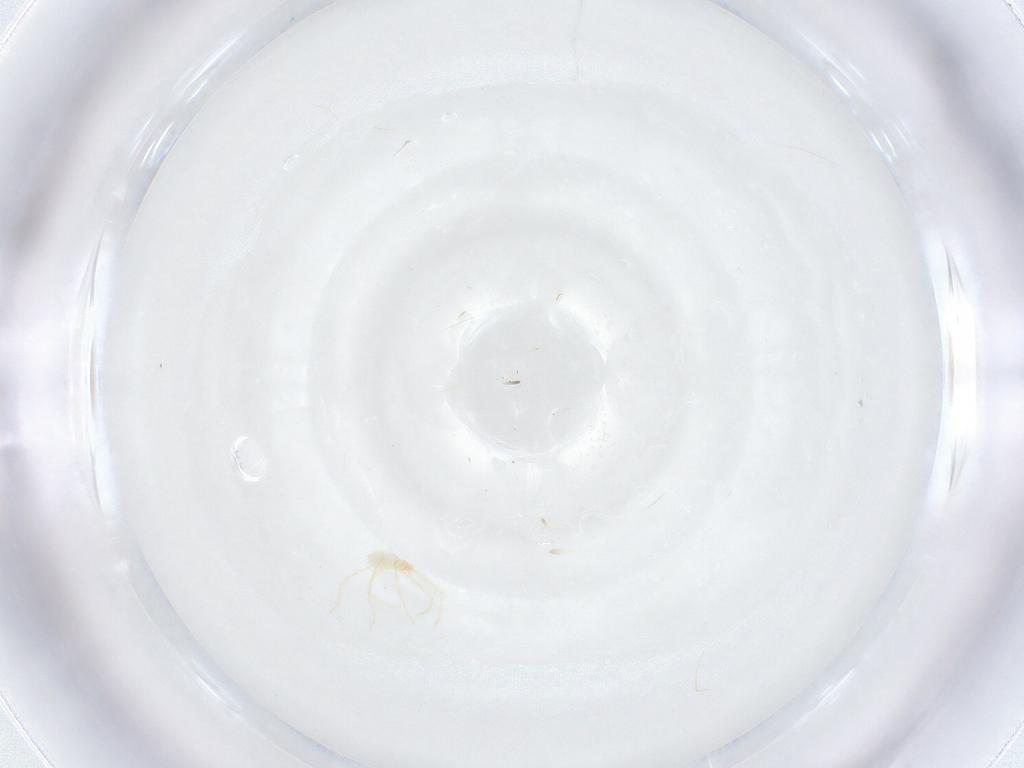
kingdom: Animalia
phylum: Arthropoda
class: Arachnida
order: Trombidiformes
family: Erythraeidae
